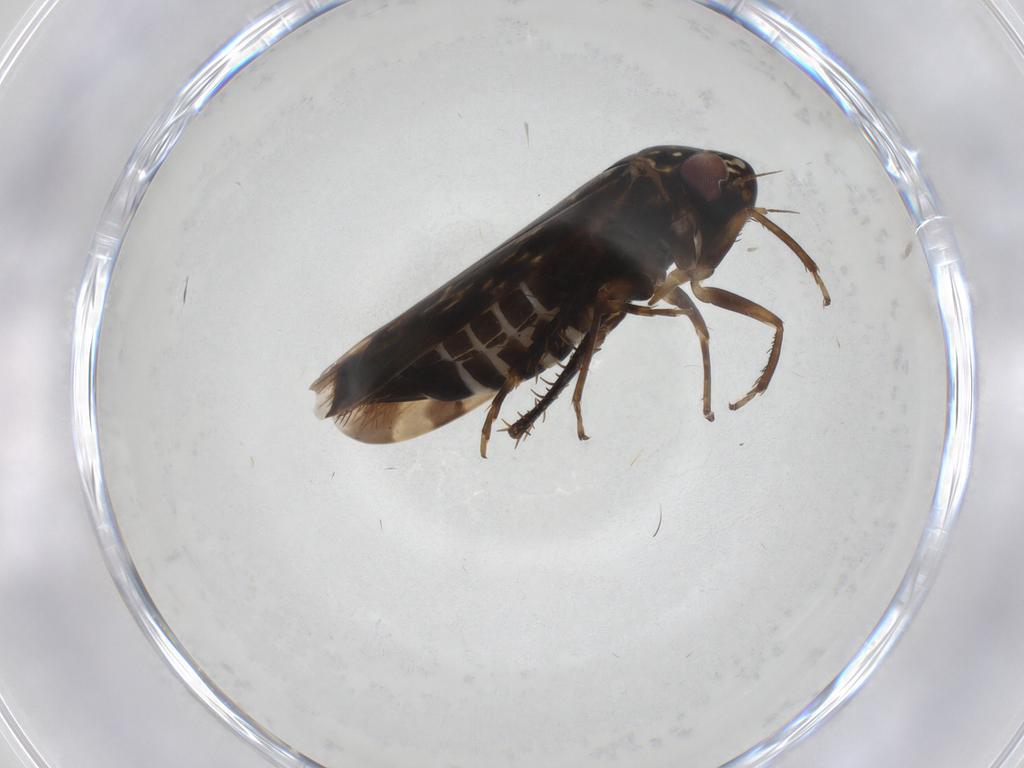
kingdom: Animalia
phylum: Arthropoda
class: Insecta
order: Hemiptera
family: Cicadellidae
